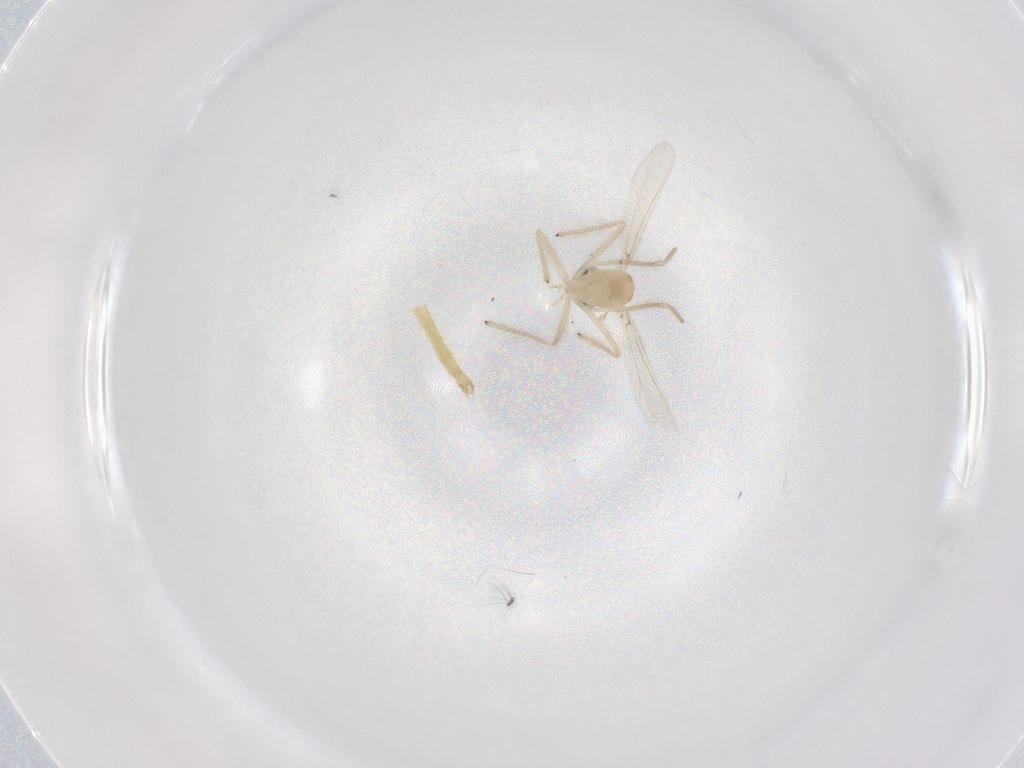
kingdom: Animalia
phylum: Arthropoda
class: Insecta
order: Diptera
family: Chironomidae
